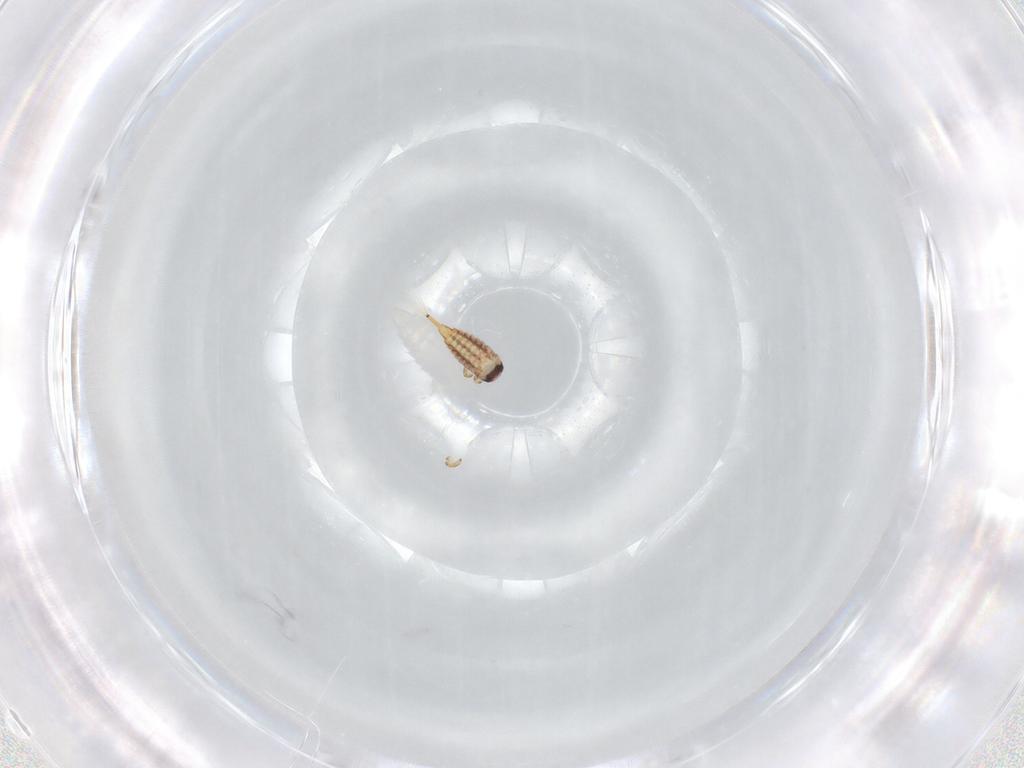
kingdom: Animalia
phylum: Arthropoda
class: Insecta
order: Thysanoptera
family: Phlaeothripidae
